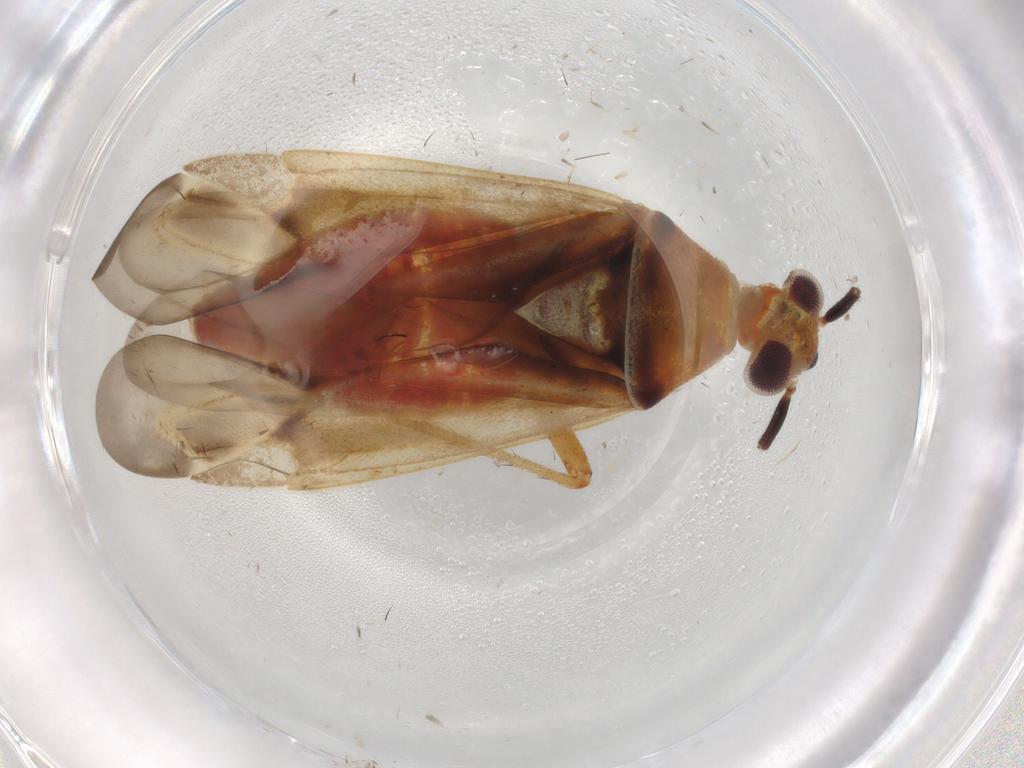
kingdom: Animalia
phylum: Arthropoda
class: Insecta
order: Hemiptera
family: Miridae
